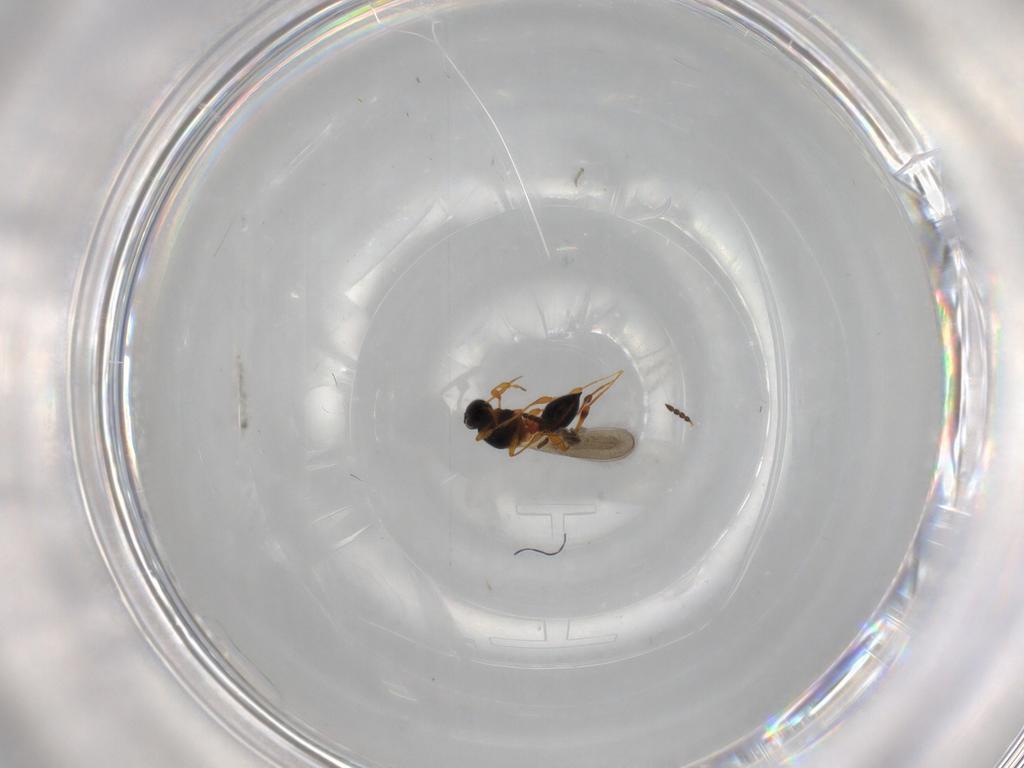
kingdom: Animalia
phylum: Arthropoda
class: Insecta
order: Hymenoptera
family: Platygastridae
